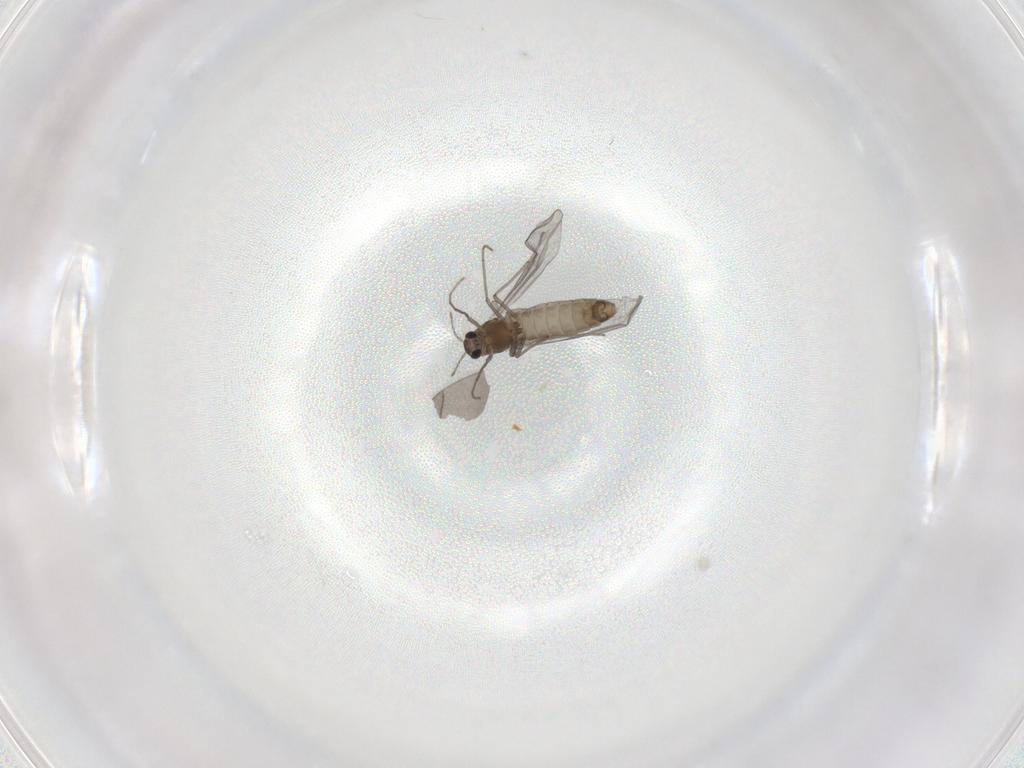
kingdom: Animalia
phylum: Arthropoda
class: Insecta
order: Diptera
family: Chironomidae
